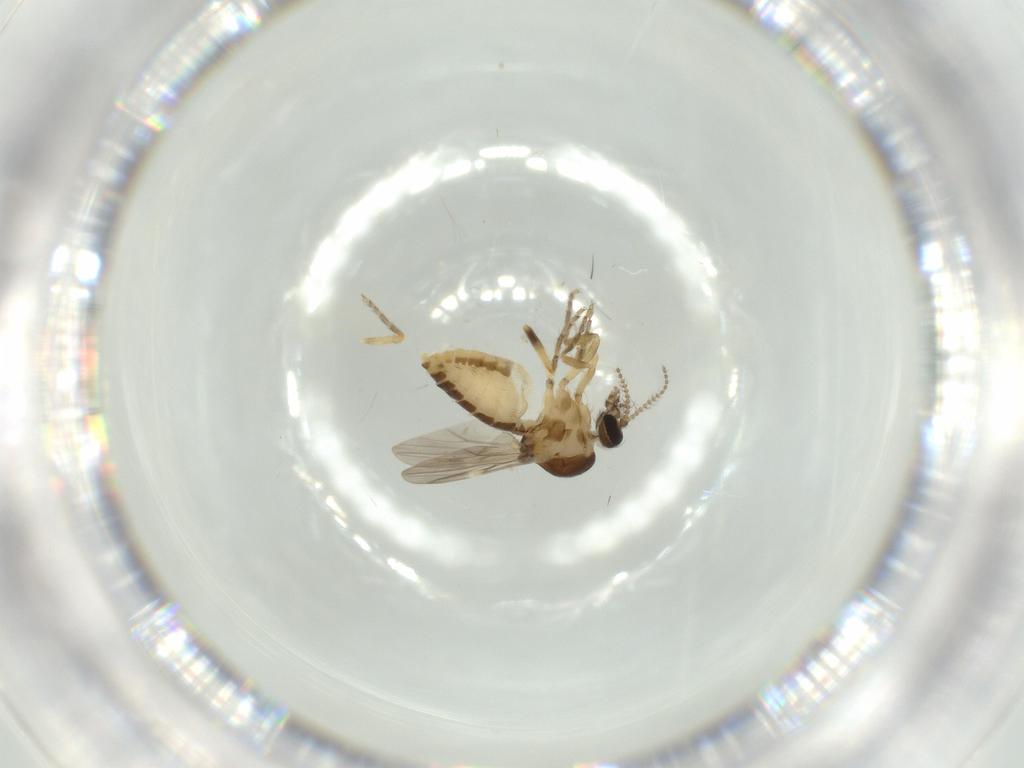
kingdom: Animalia
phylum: Arthropoda
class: Insecta
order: Diptera
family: Ceratopogonidae
